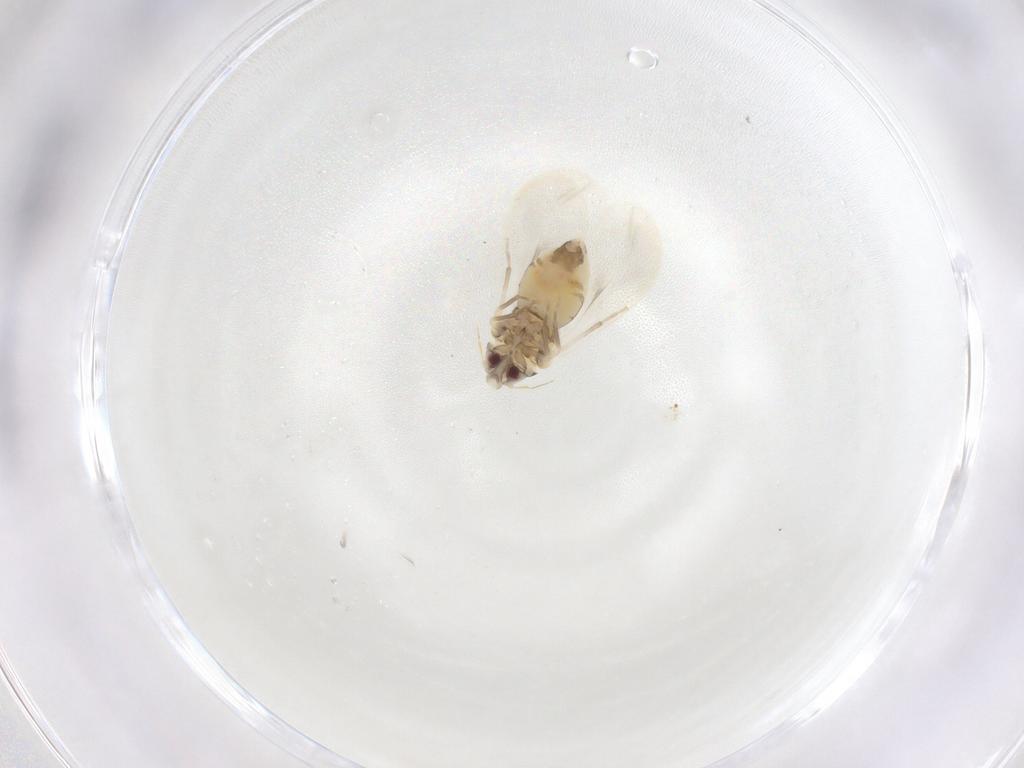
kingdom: Animalia
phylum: Arthropoda
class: Insecta
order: Hemiptera
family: Aleyrodidae
